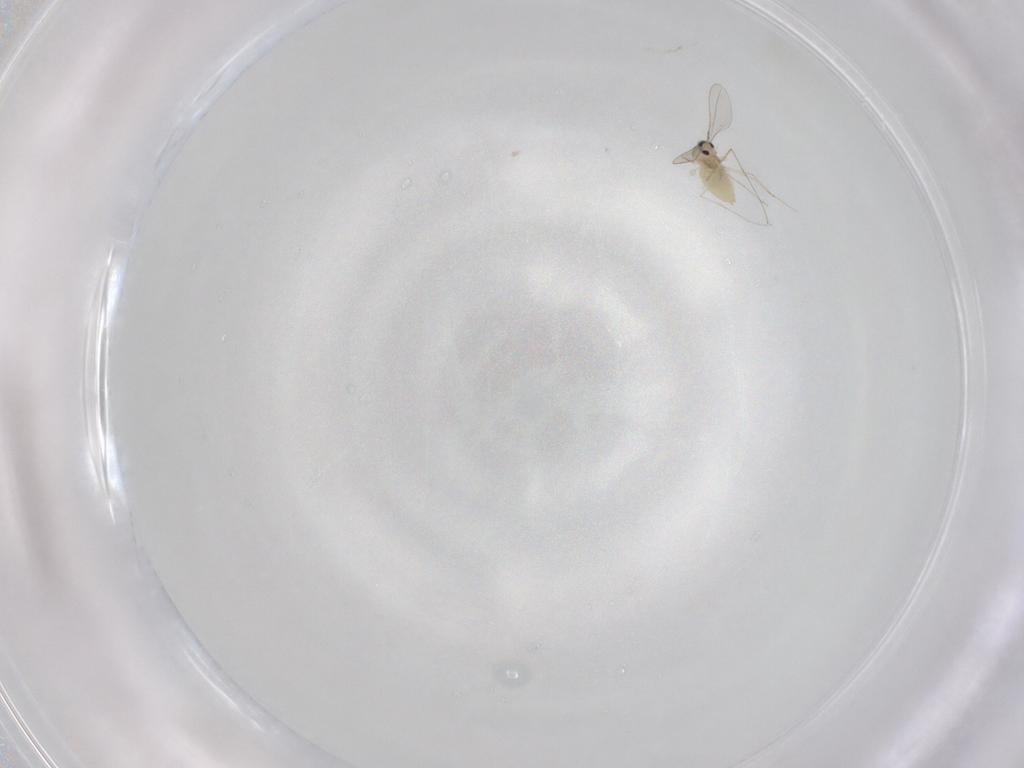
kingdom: Animalia
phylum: Arthropoda
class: Insecta
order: Diptera
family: Cecidomyiidae
